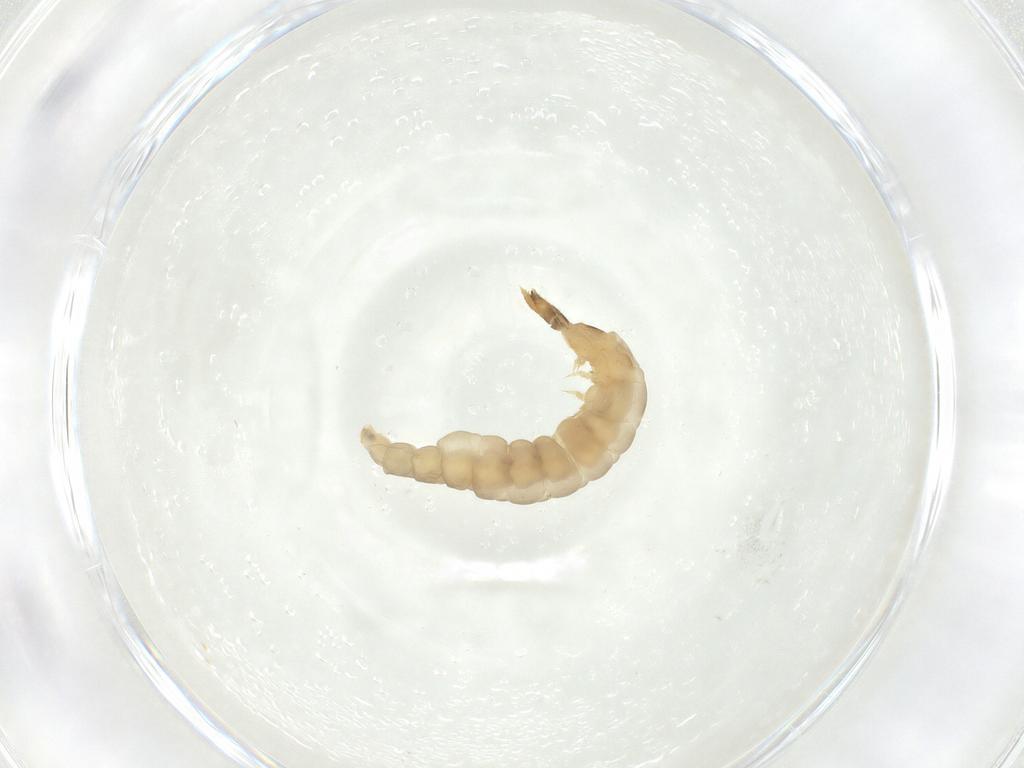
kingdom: Animalia
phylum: Arthropoda
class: Insecta
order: Coleoptera
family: Cantharidae
